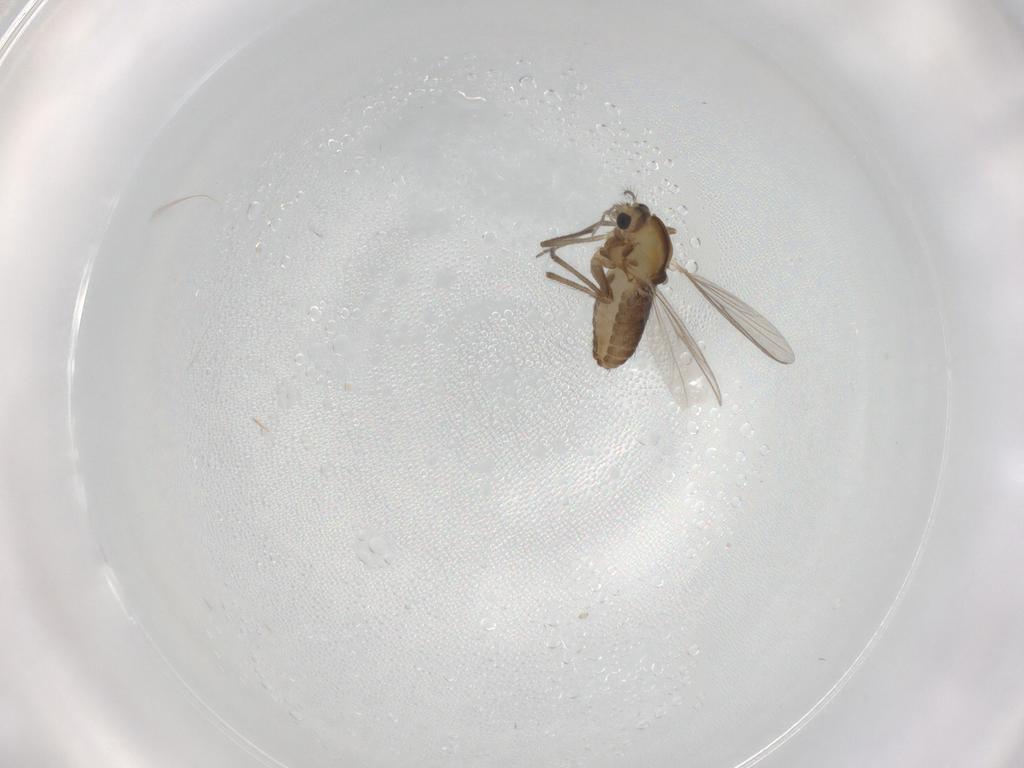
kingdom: Animalia
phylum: Arthropoda
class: Insecta
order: Diptera
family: Chironomidae
